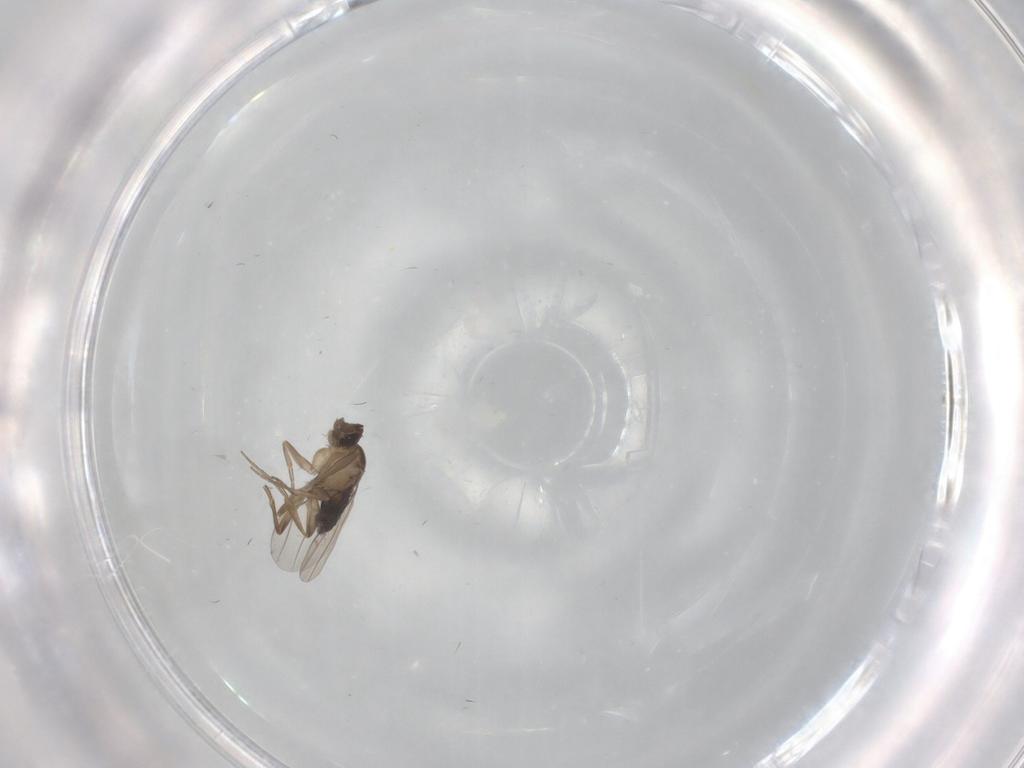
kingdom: Animalia
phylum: Arthropoda
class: Insecta
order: Diptera
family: Phoridae
